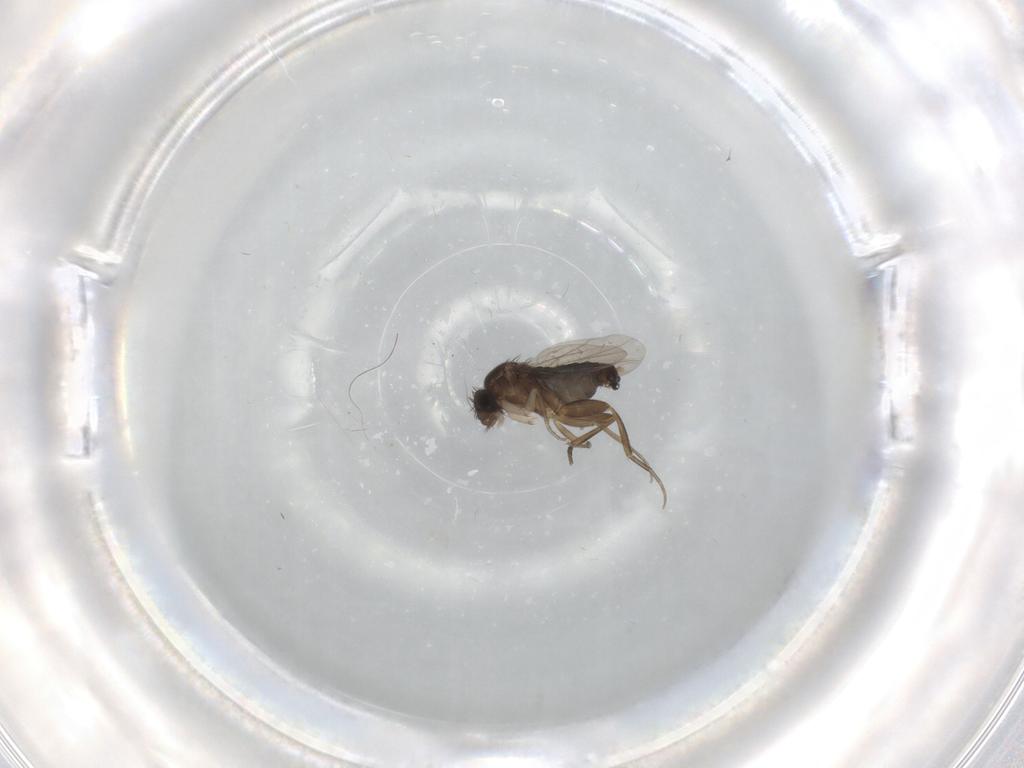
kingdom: Animalia
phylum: Arthropoda
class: Insecta
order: Diptera
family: Phoridae
